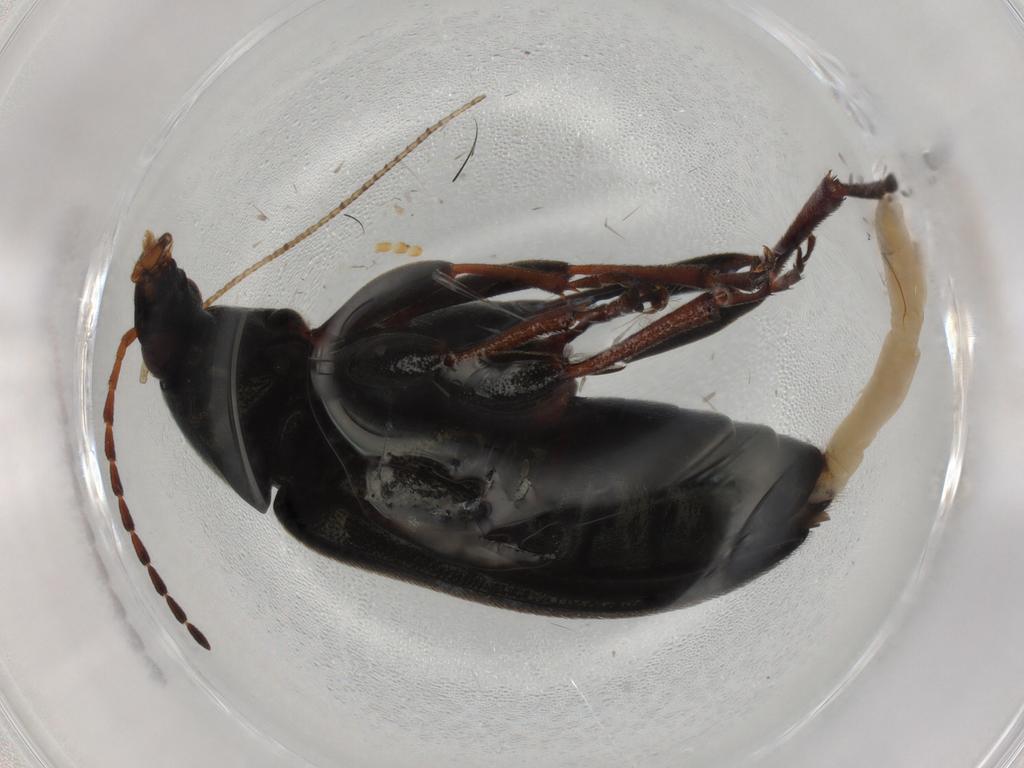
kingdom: Animalia
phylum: Arthropoda
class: Insecta
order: Coleoptera
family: Tenebrionidae
